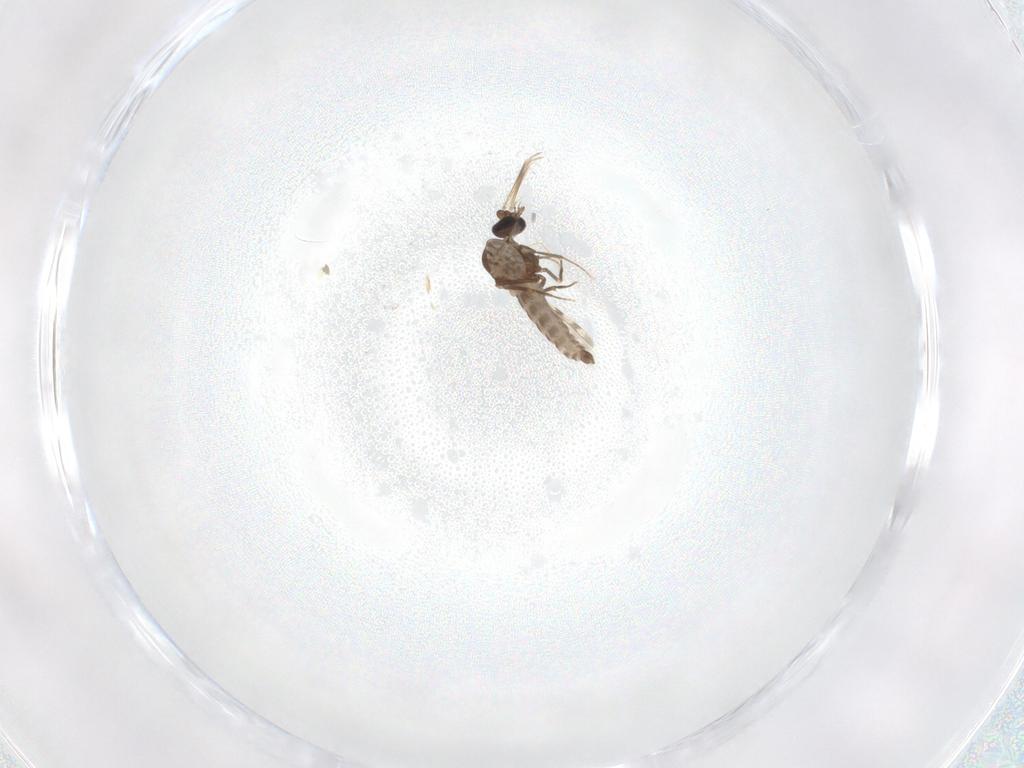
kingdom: Animalia
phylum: Arthropoda
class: Insecta
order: Diptera
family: Ceratopogonidae
